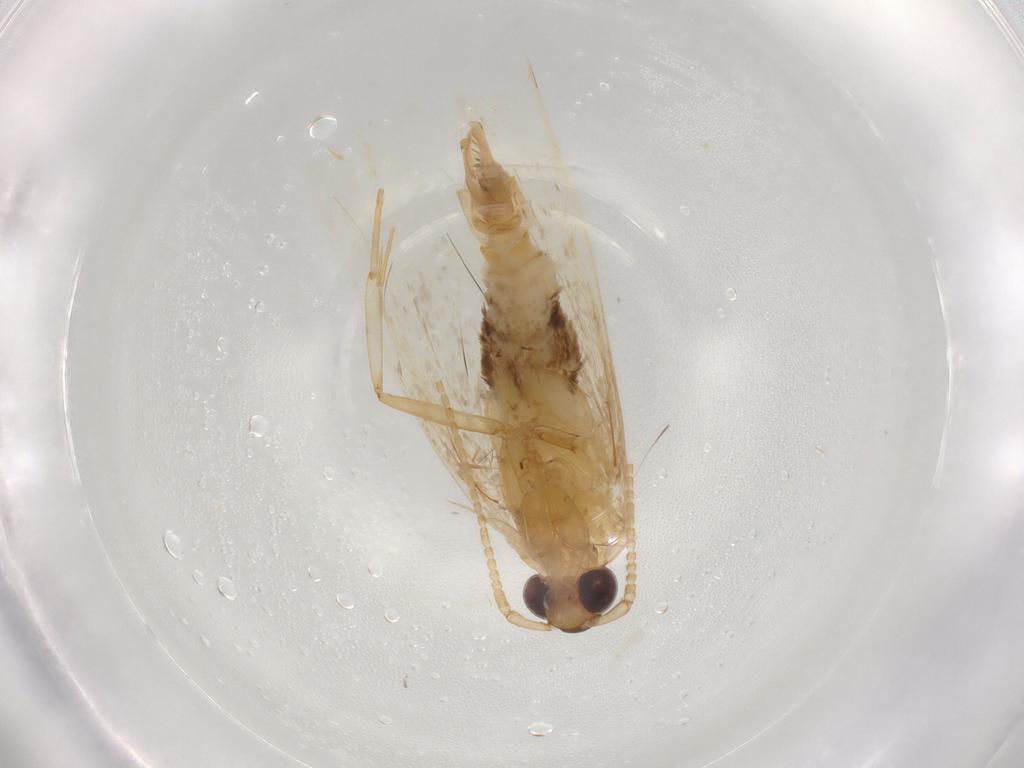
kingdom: Animalia
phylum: Arthropoda
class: Insecta
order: Lepidoptera
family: Lecithoceridae
